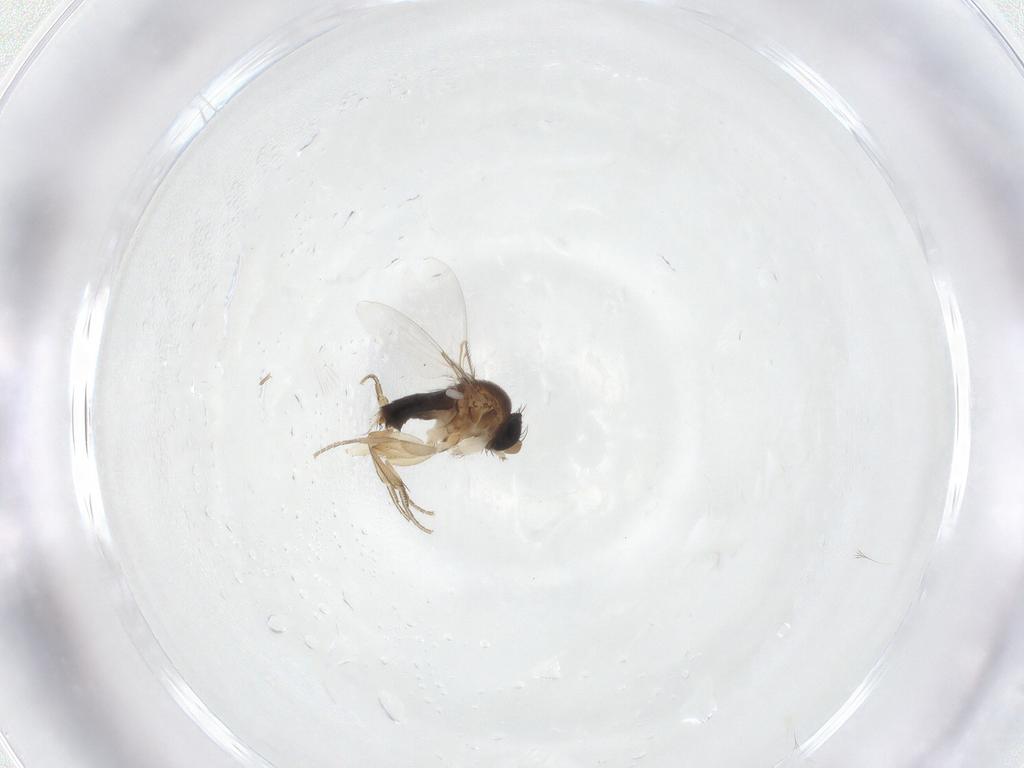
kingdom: Animalia
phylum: Arthropoda
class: Insecta
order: Diptera
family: Phoridae
